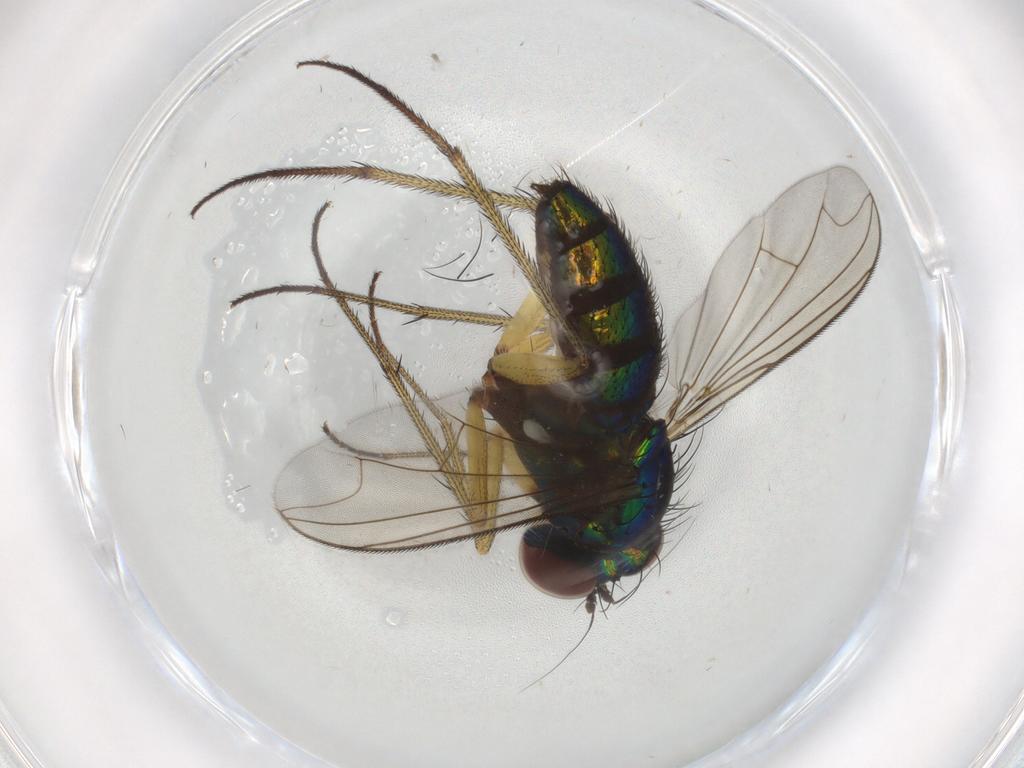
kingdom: Animalia
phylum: Arthropoda
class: Insecta
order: Diptera
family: Dolichopodidae
